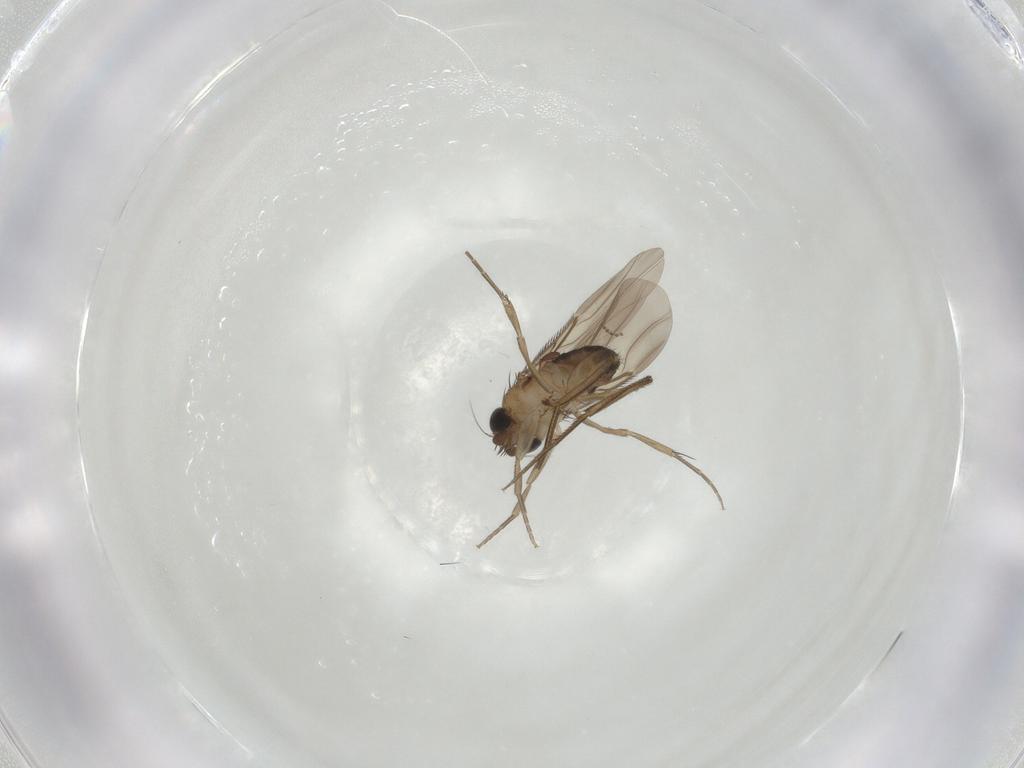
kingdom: Animalia
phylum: Arthropoda
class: Insecta
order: Diptera
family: Phoridae
